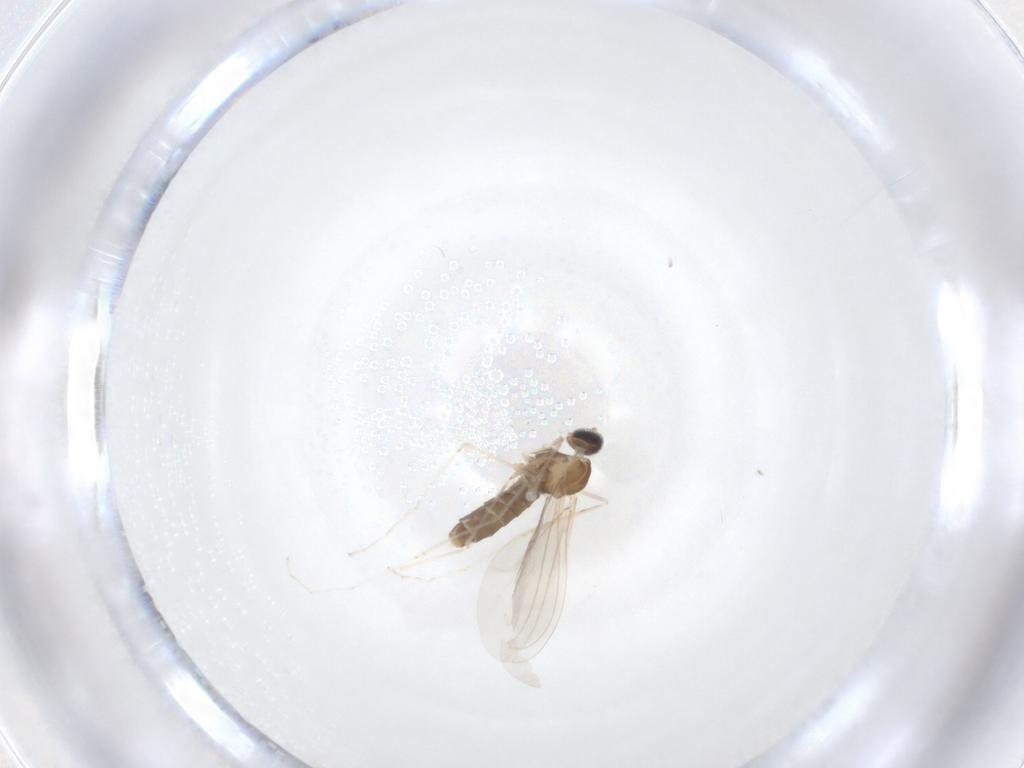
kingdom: Animalia
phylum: Arthropoda
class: Insecta
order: Diptera
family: Cecidomyiidae
